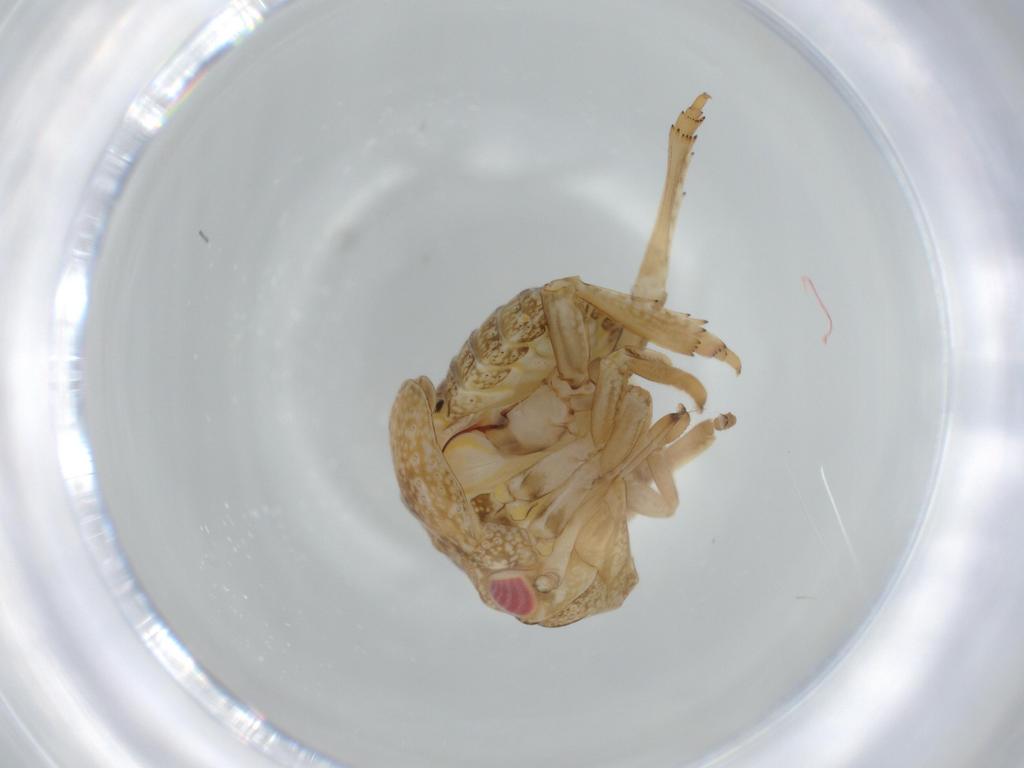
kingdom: Animalia
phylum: Arthropoda
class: Insecta
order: Hemiptera
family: Acanaloniidae
